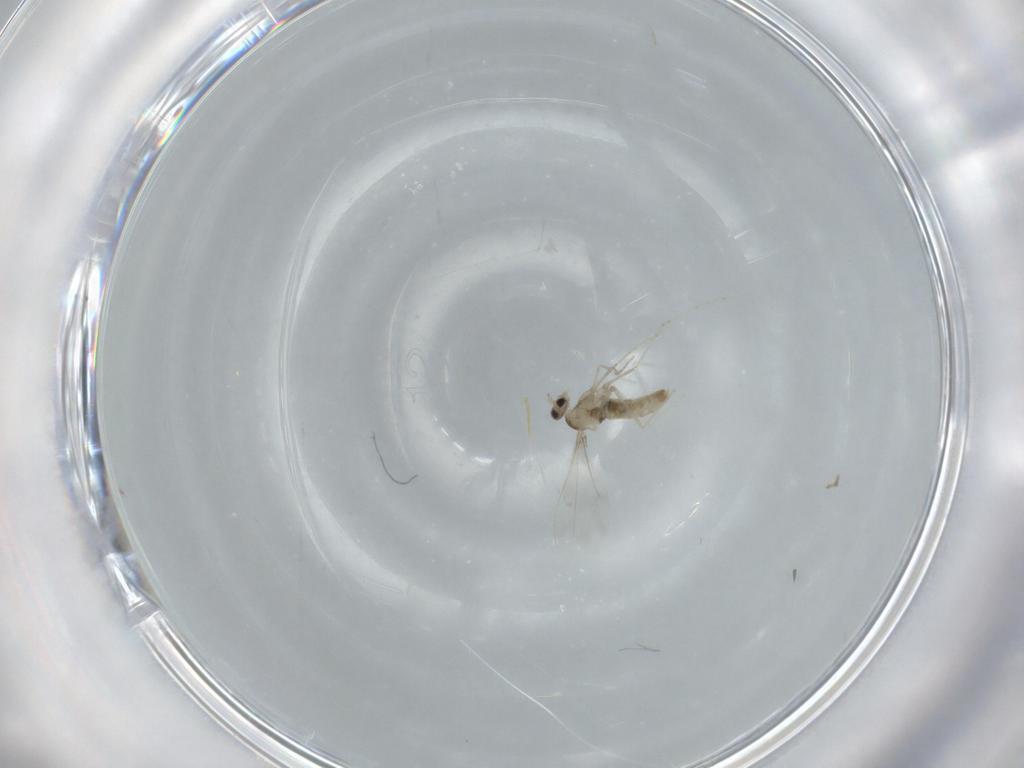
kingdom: Animalia
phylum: Arthropoda
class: Insecta
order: Diptera
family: Cecidomyiidae
